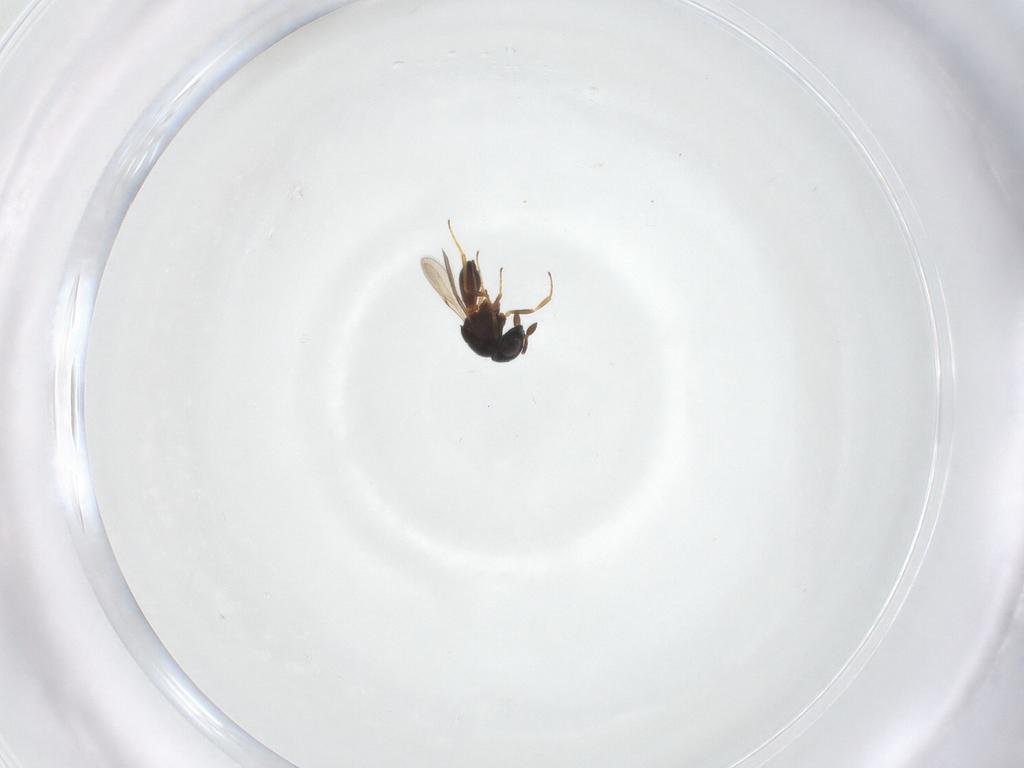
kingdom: Animalia
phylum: Arthropoda
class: Insecta
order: Hymenoptera
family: Scelionidae
